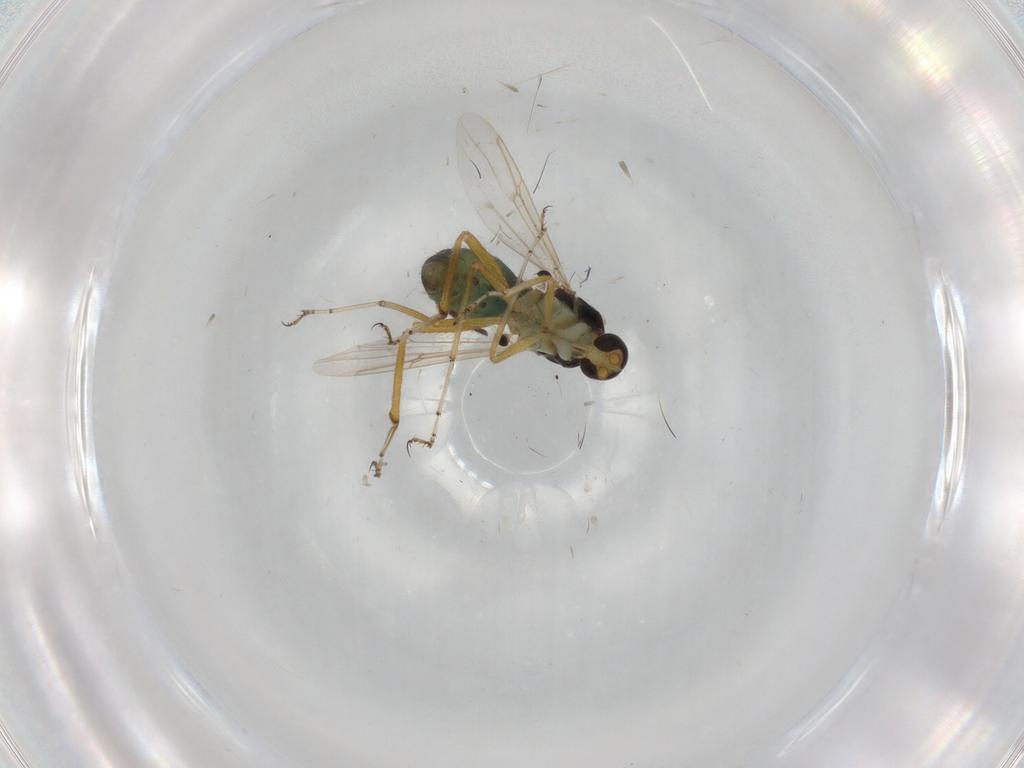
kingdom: Animalia
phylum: Arthropoda
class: Insecta
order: Diptera
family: Ceratopogonidae
